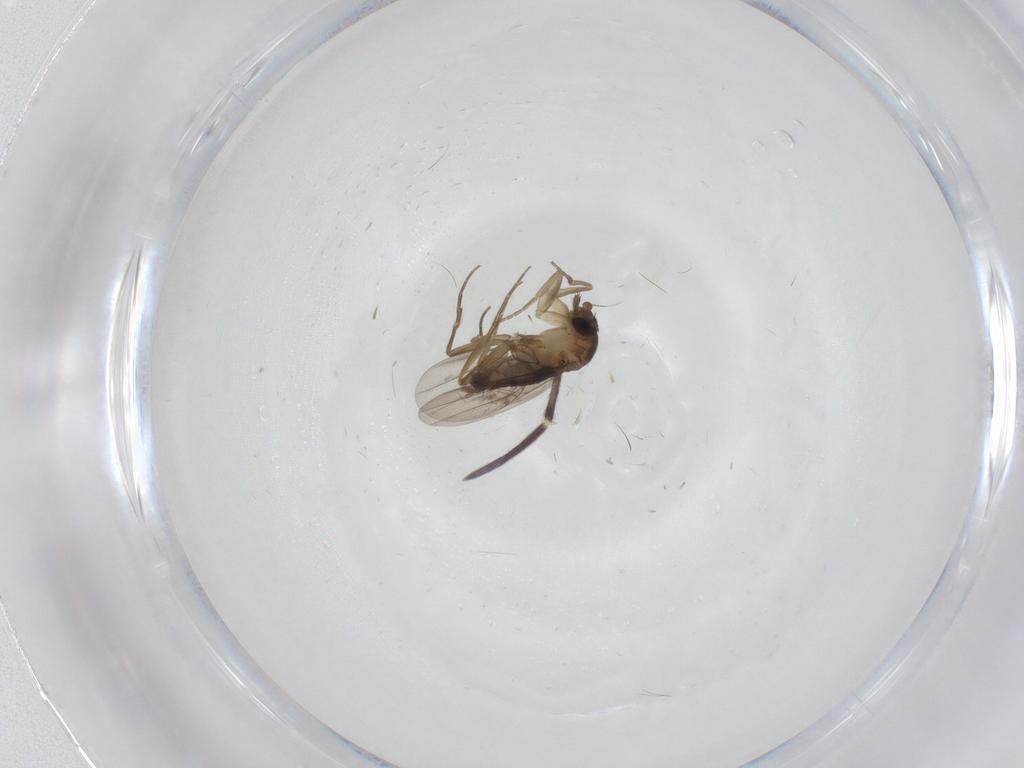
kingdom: Animalia
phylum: Arthropoda
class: Insecta
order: Diptera
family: Phoridae
